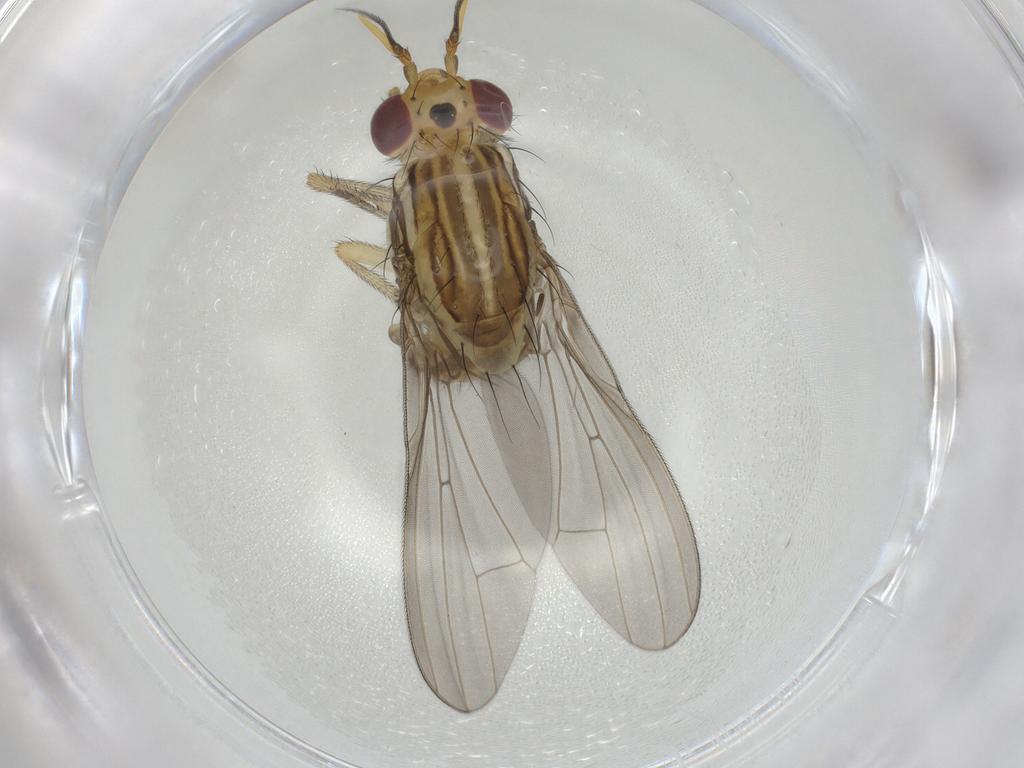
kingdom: Animalia
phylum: Arthropoda
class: Insecta
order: Diptera
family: Lauxaniidae
